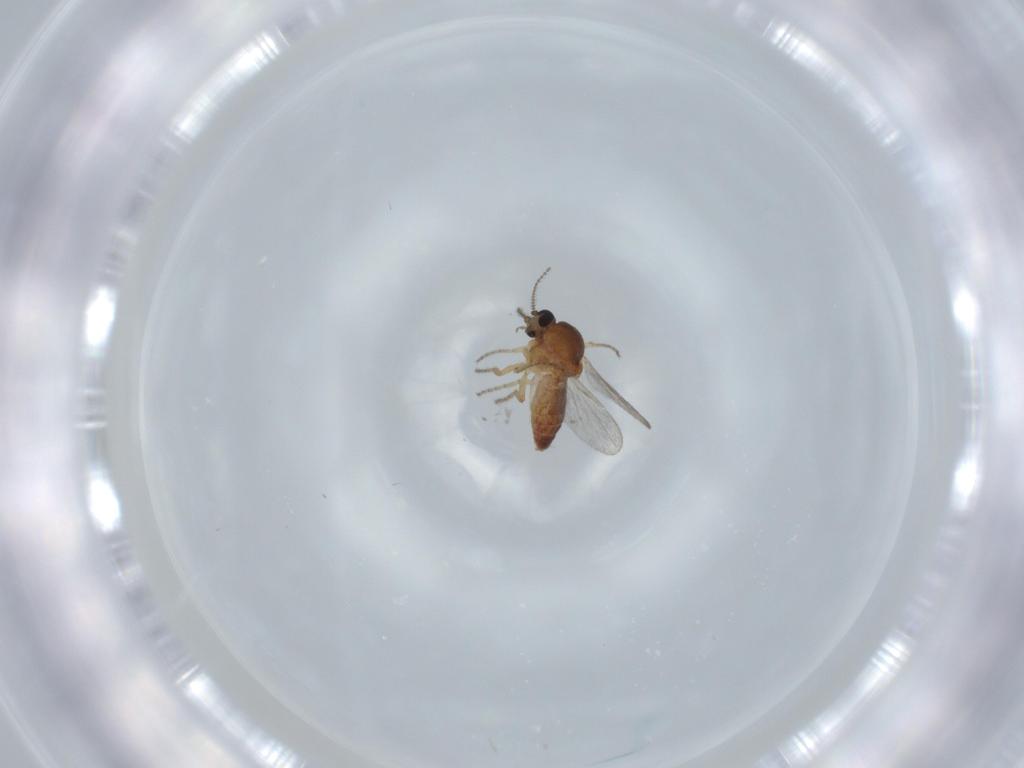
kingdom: Animalia
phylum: Arthropoda
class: Insecta
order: Diptera
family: Ceratopogonidae
